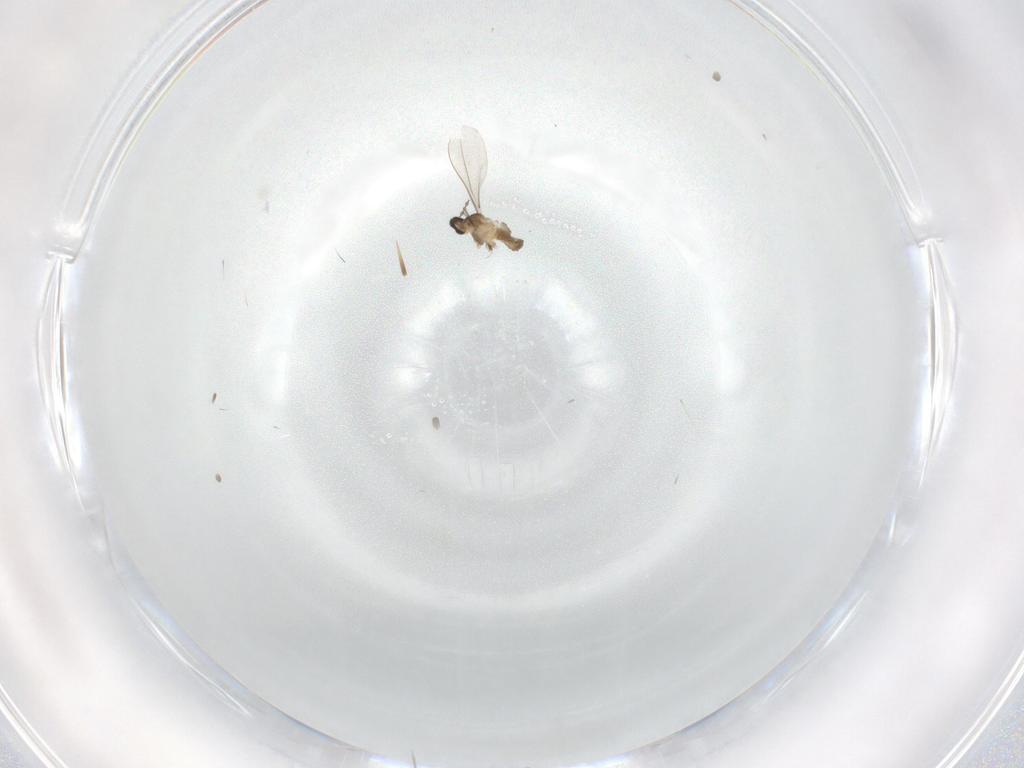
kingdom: Animalia
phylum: Arthropoda
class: Insecta
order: Diptera
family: Cecidomyiidae
